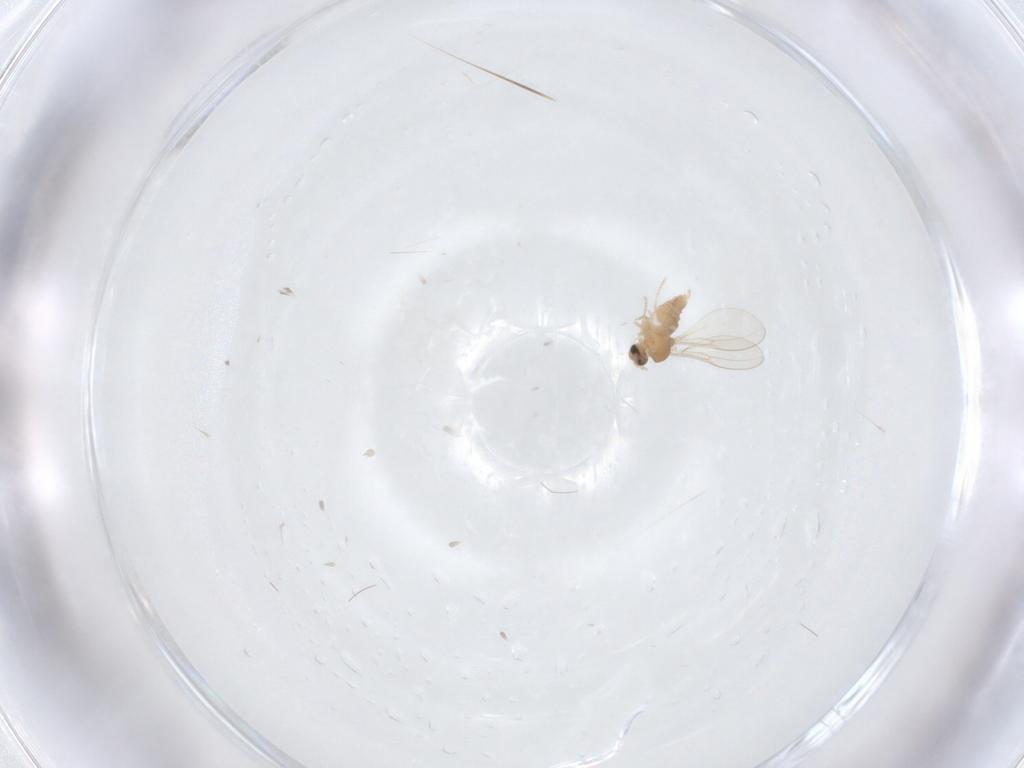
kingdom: Animalia
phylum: Arthropoda
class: Insecta
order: Diptera
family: Cecidomyiidae
